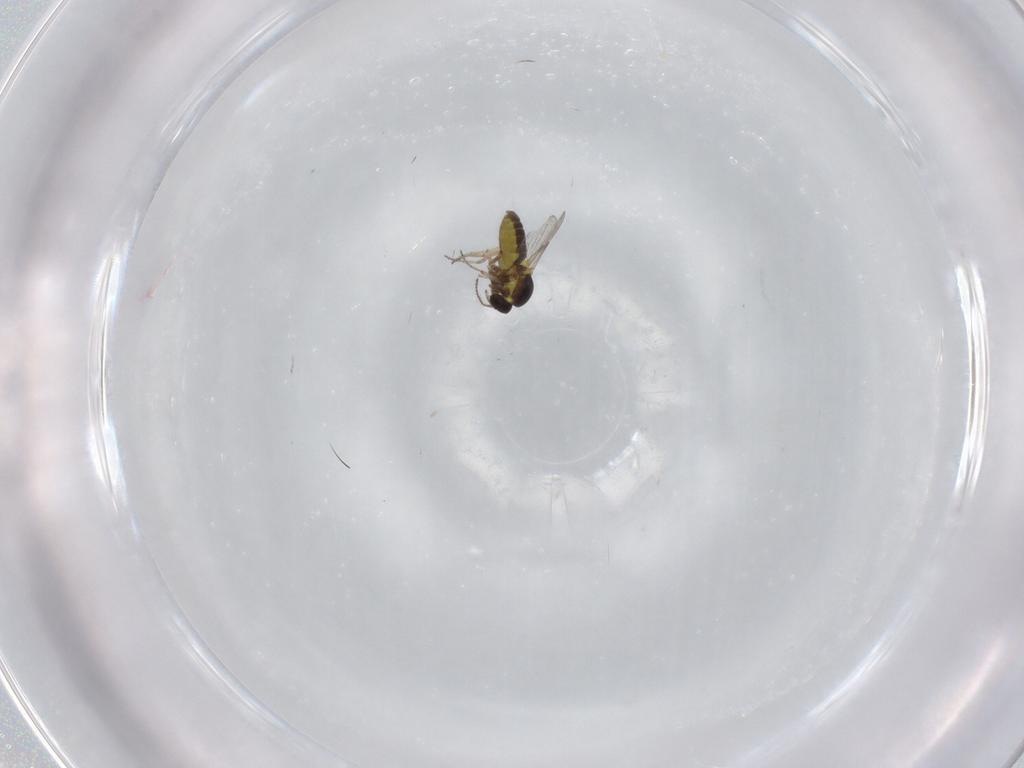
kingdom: Animalia
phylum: Arthropoda
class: Insecta
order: Diptera
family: Ceratopogonidae
